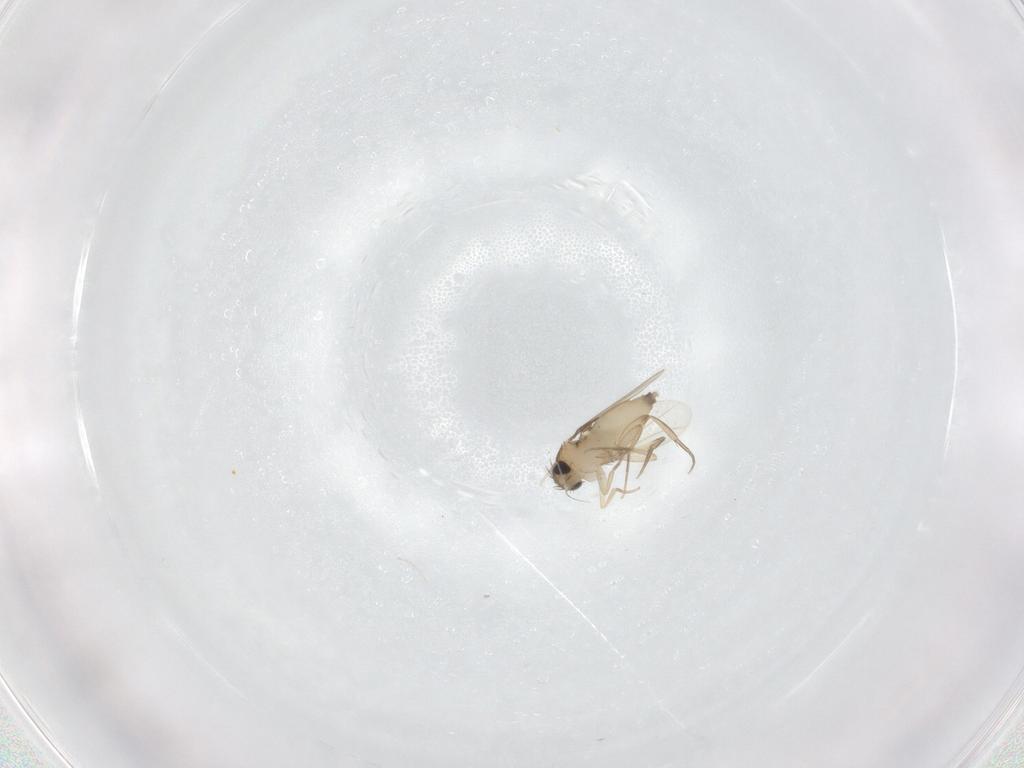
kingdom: Animalia
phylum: Arthropoda
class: Insecta
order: Diptera
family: Phoridae
